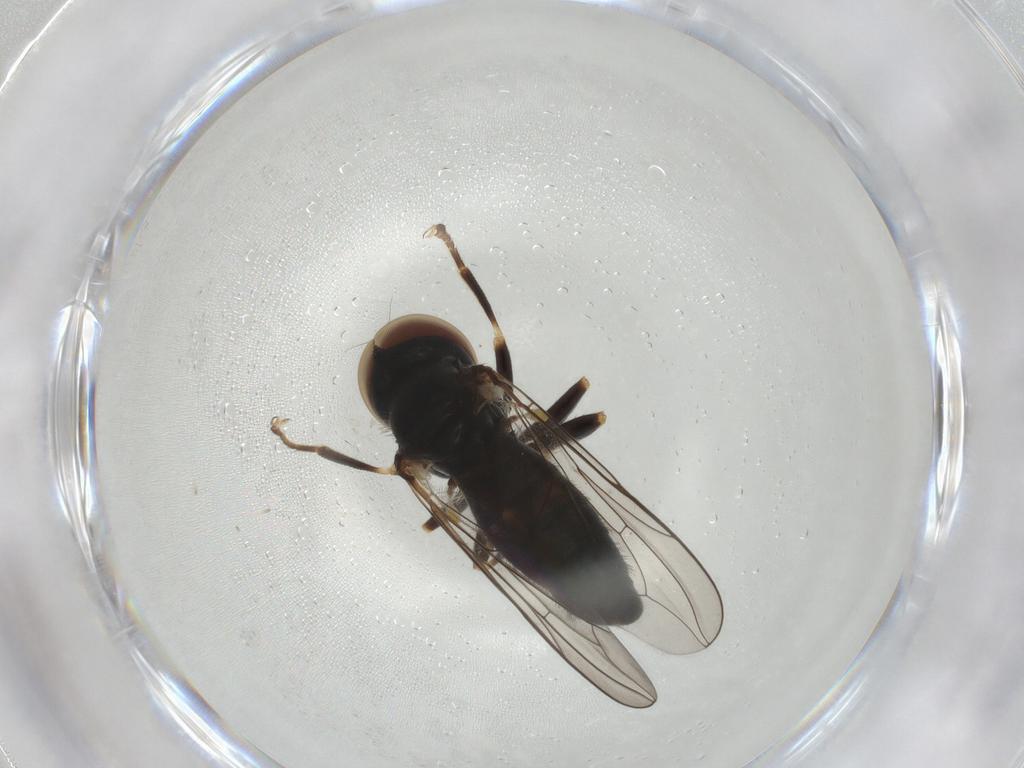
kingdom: Animalia
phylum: Arthropoda
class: Insecta
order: Diptera
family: Pipunculidae
